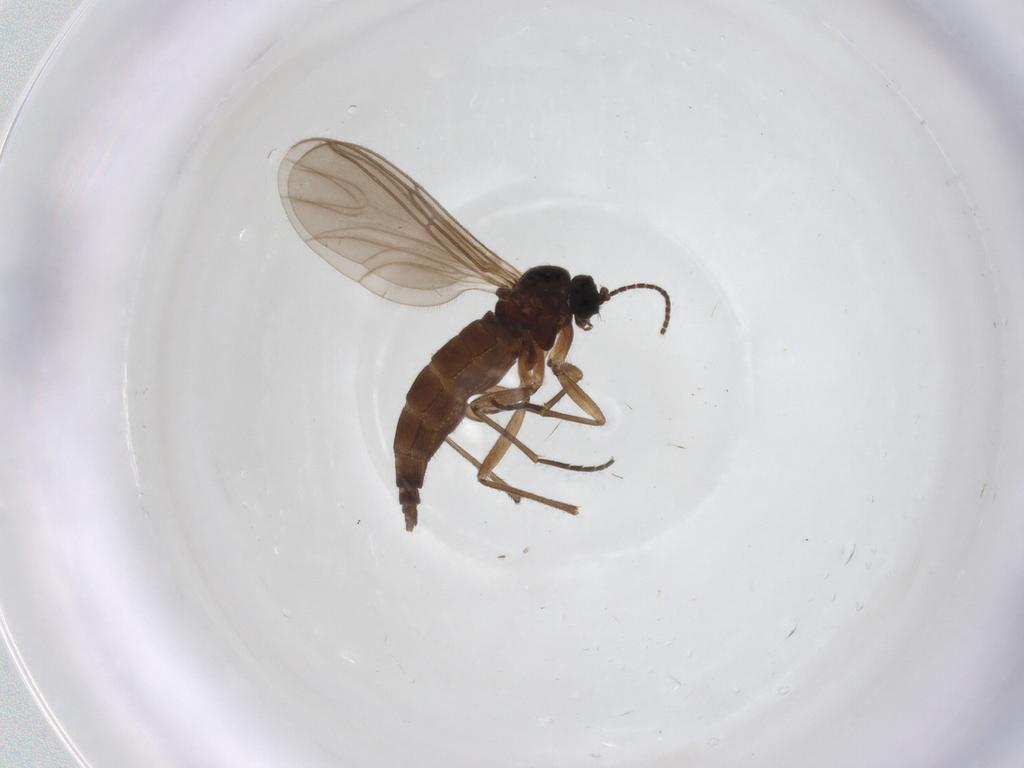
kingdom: Animalia
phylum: Arthropoda
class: Insecta
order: Diptera
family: Sciaridae
